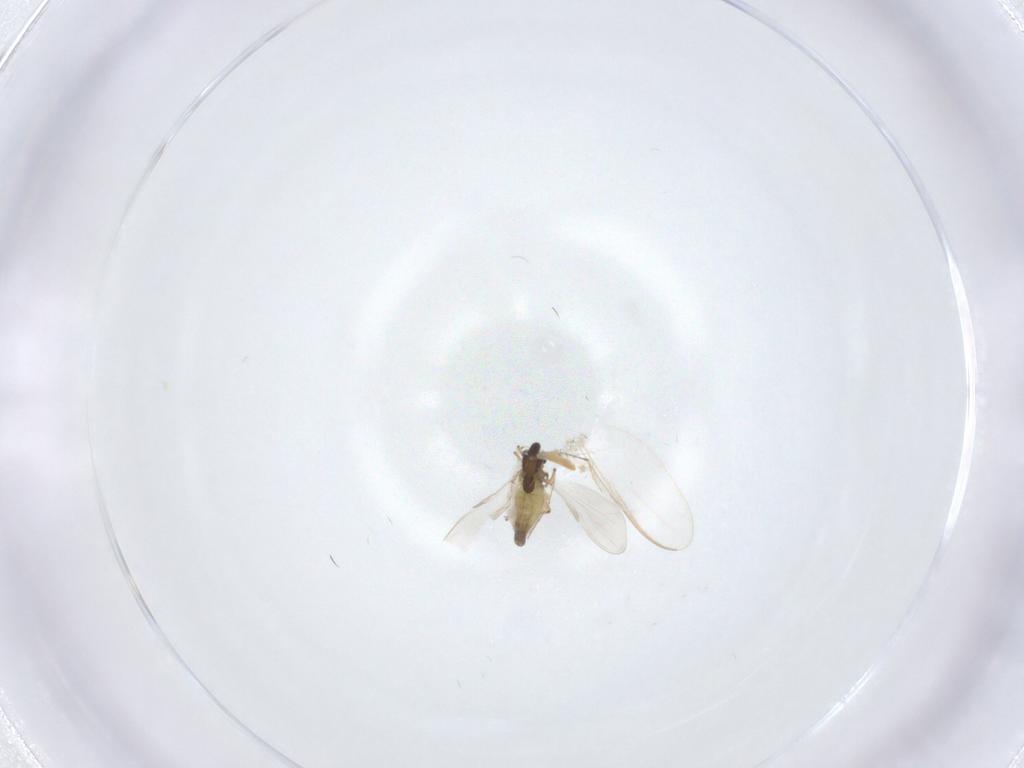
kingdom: Animalia
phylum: Arthropoda
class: Insecta
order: Diptera
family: Chironomidae
